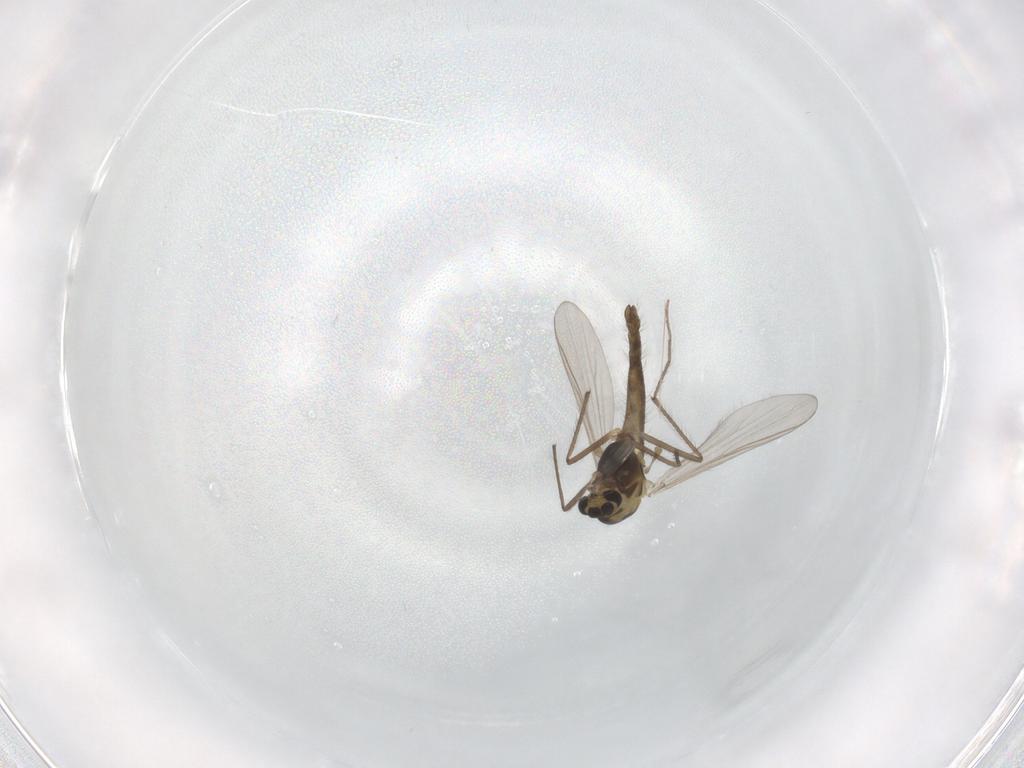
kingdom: Animalia
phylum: Arthropoda
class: Insecta
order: Diptera
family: Chironomidae
